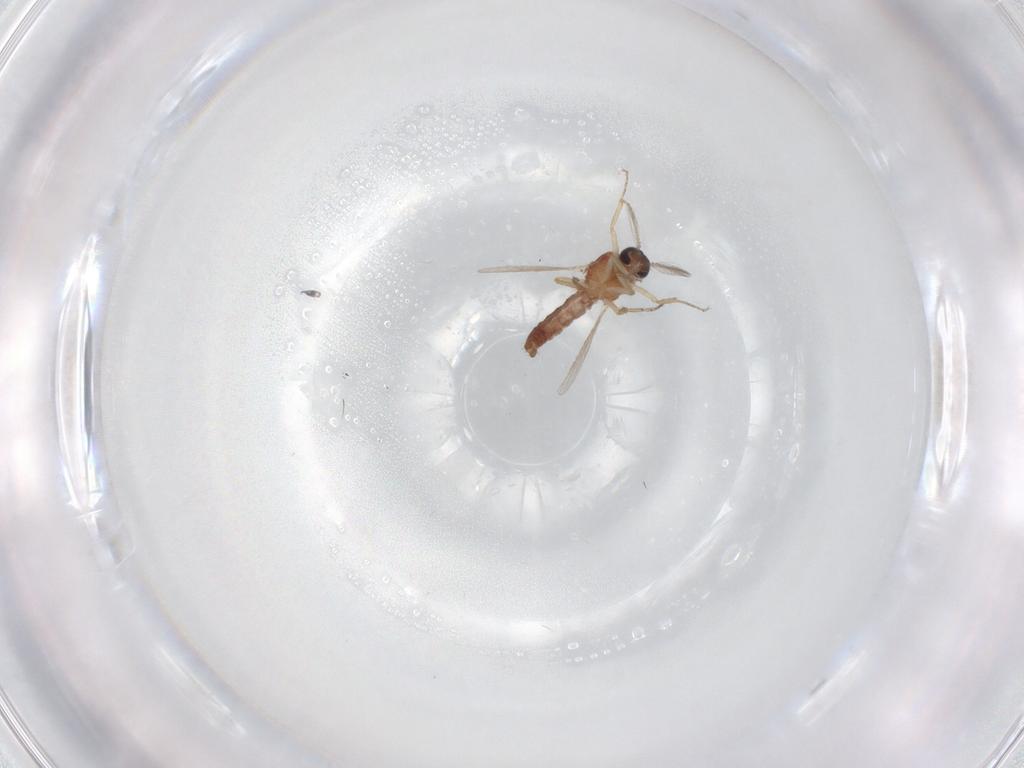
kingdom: Animalia
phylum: Arthropoda
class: Insecta
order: Diptera
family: Ceratopogonidae
